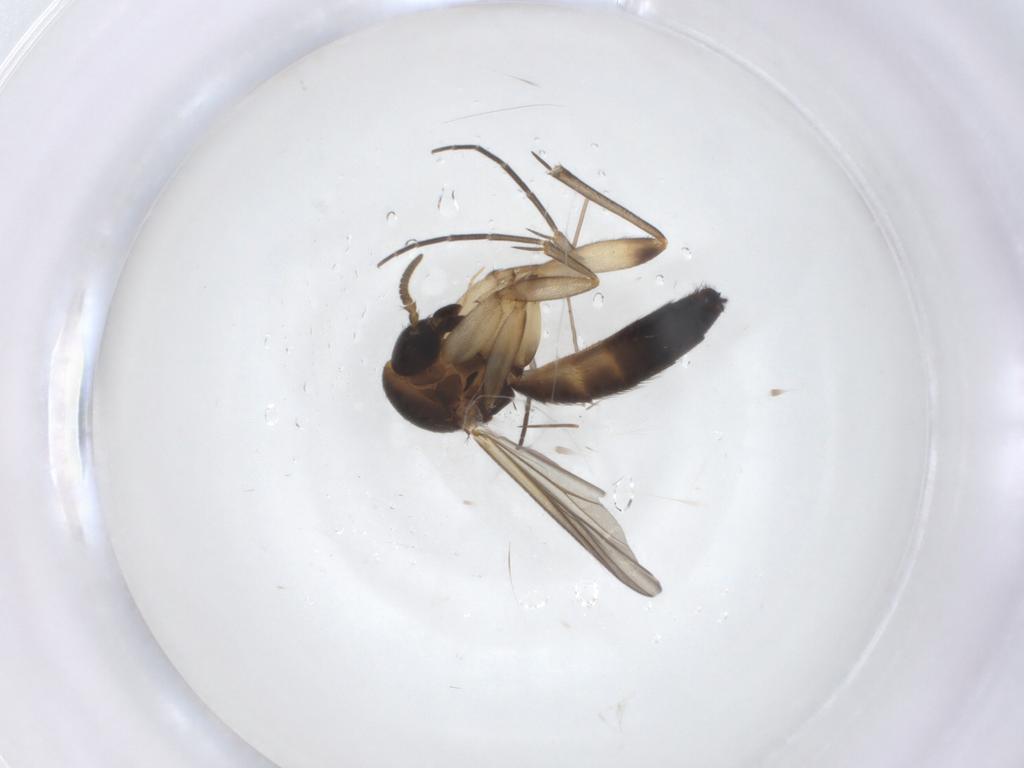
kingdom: Animalia
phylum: Arthropoda
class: Insecta
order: Diptera
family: Mycetophilidae
